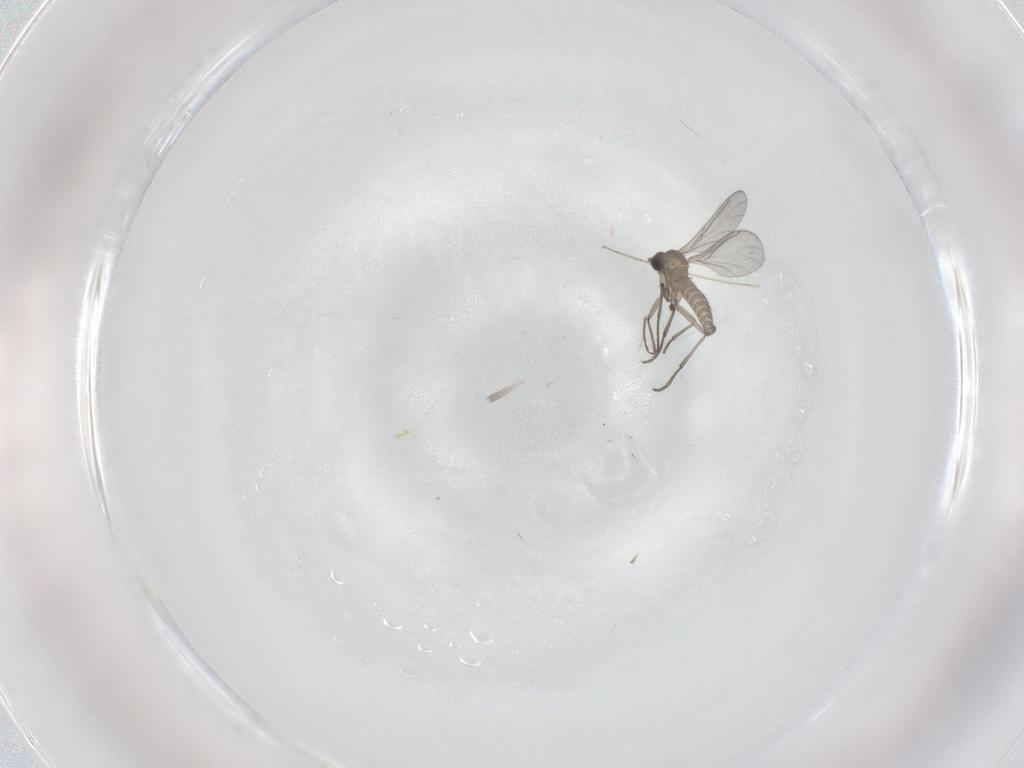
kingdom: Animalia
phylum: Arthropoda
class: Insecta
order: Diptera
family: Sciaridae
